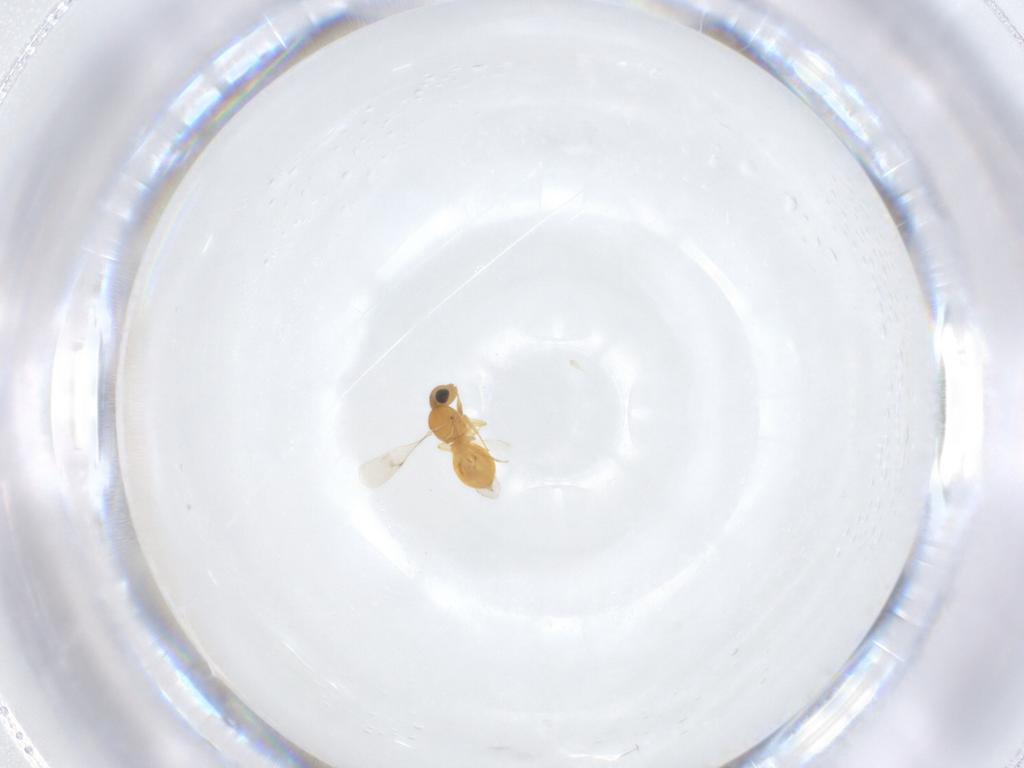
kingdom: Animalia
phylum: Arthropoda
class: Insecta
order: Hymenoptera
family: Scelionidae
